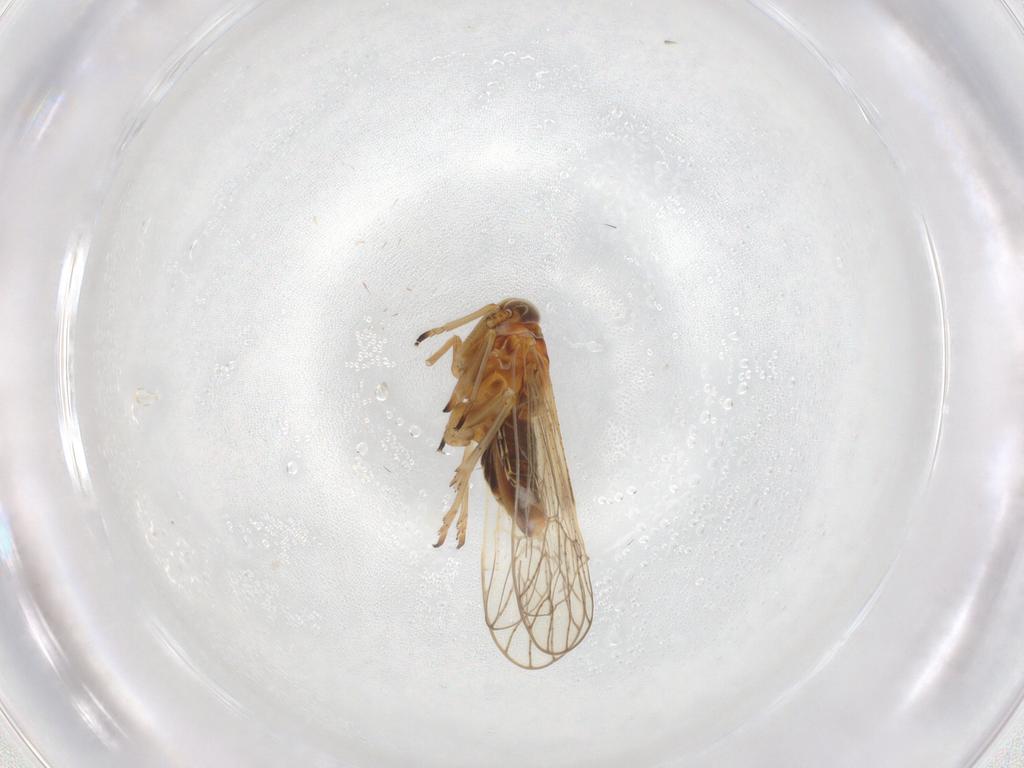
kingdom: Animalia
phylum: Arthropoda
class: Insecta
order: Hemiptera
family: Delphacidae
